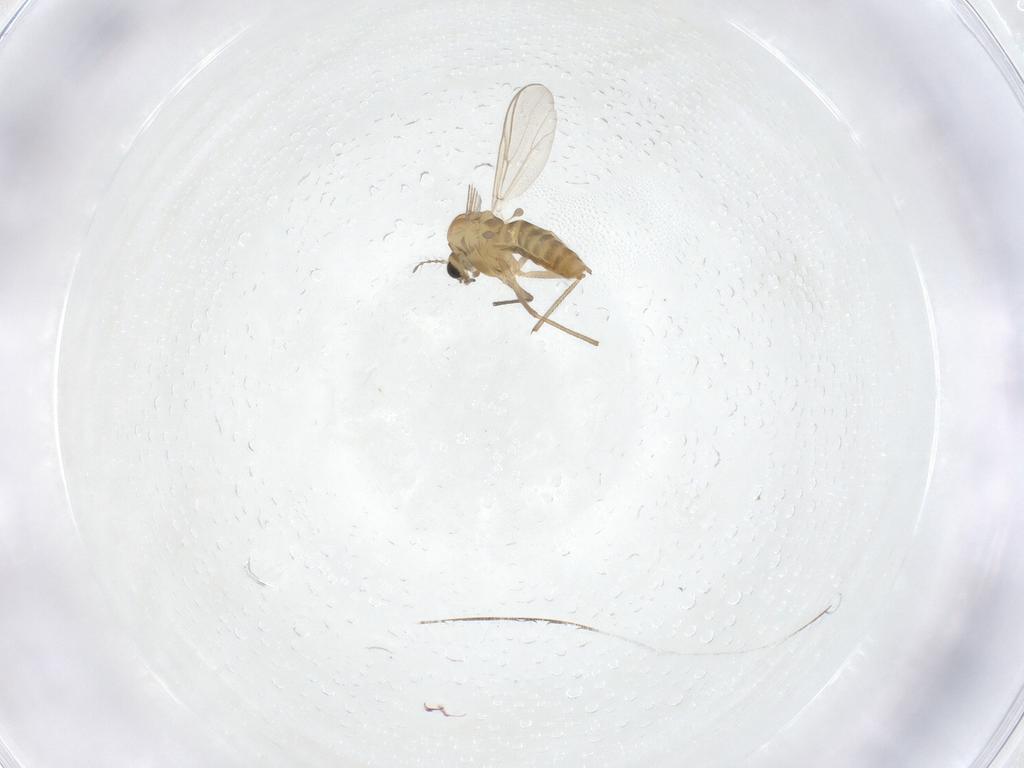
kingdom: Animalia
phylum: Arthropoda
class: Insecta
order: Diptera
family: Chironomidae
